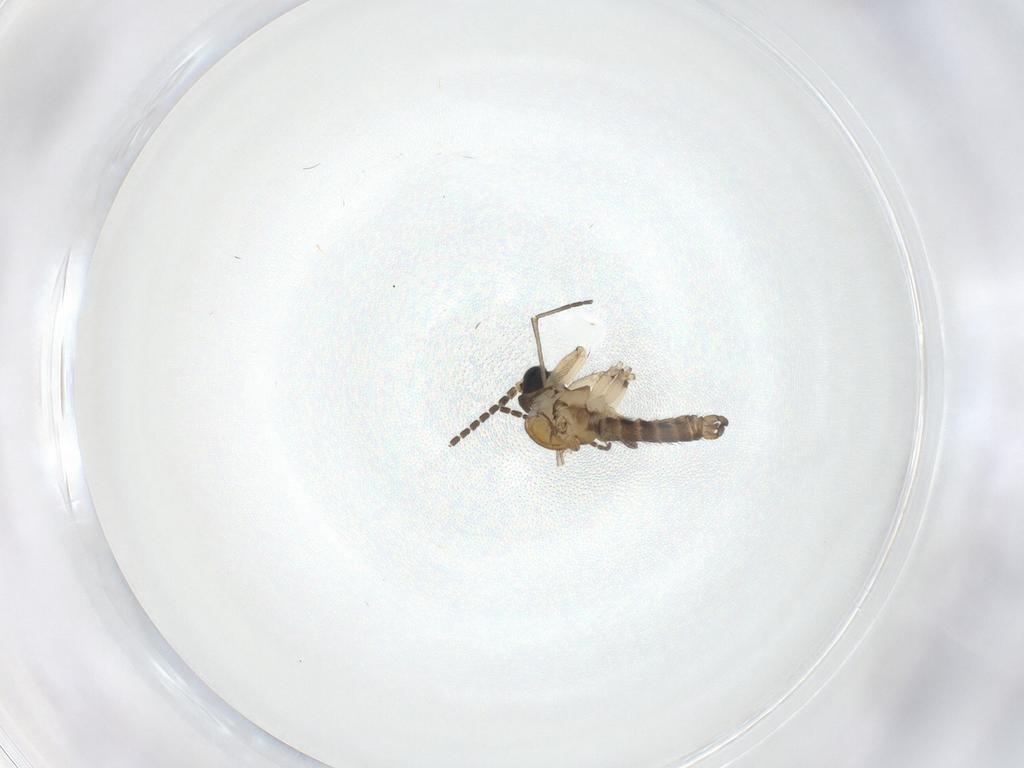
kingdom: Animalia
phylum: Arthropoda
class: Insecta
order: Diptera
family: Sciaridae
